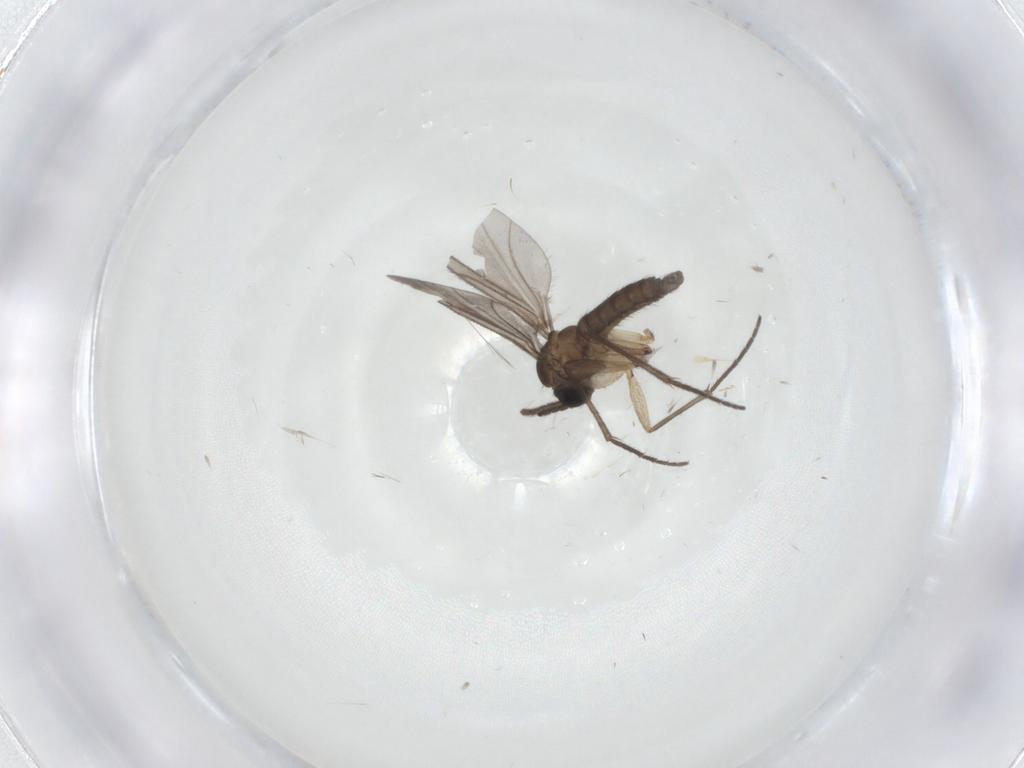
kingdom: Animalia
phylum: Arthropoda
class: Insecta
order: Diptera
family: Sciaridae
